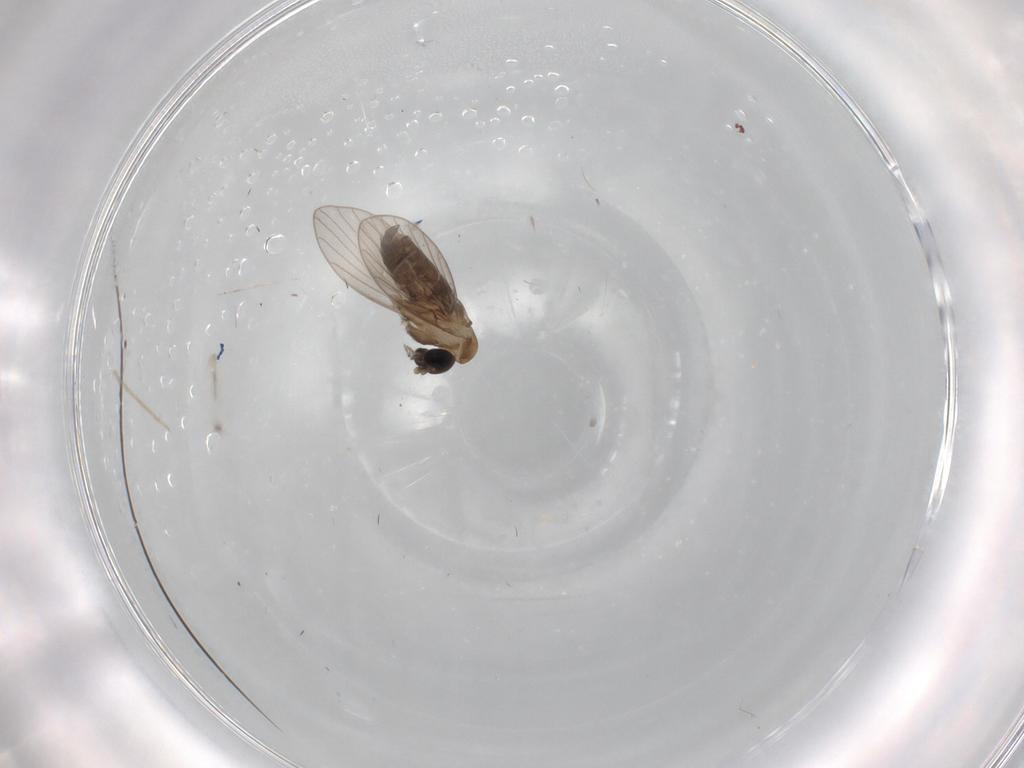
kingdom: Animalia
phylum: Arthropoda
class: Insecta
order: Diptera
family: Psychodidae
